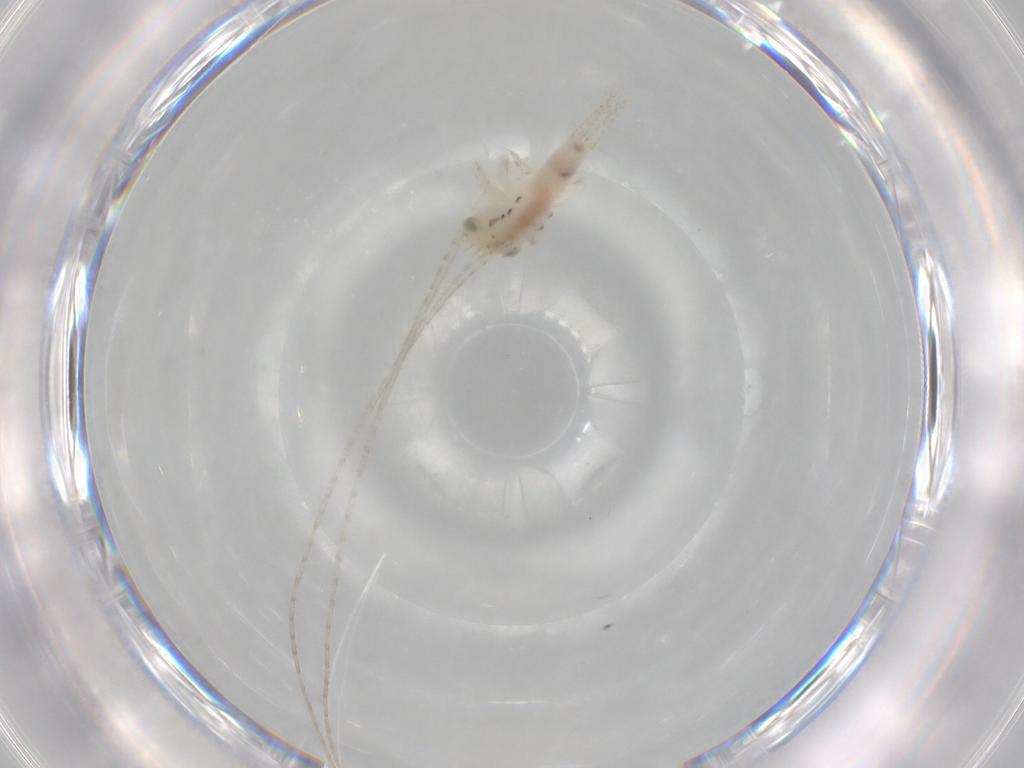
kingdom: Animalia
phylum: Arthropoda
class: Insecta
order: Orthoptera
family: Trigonidiidae
